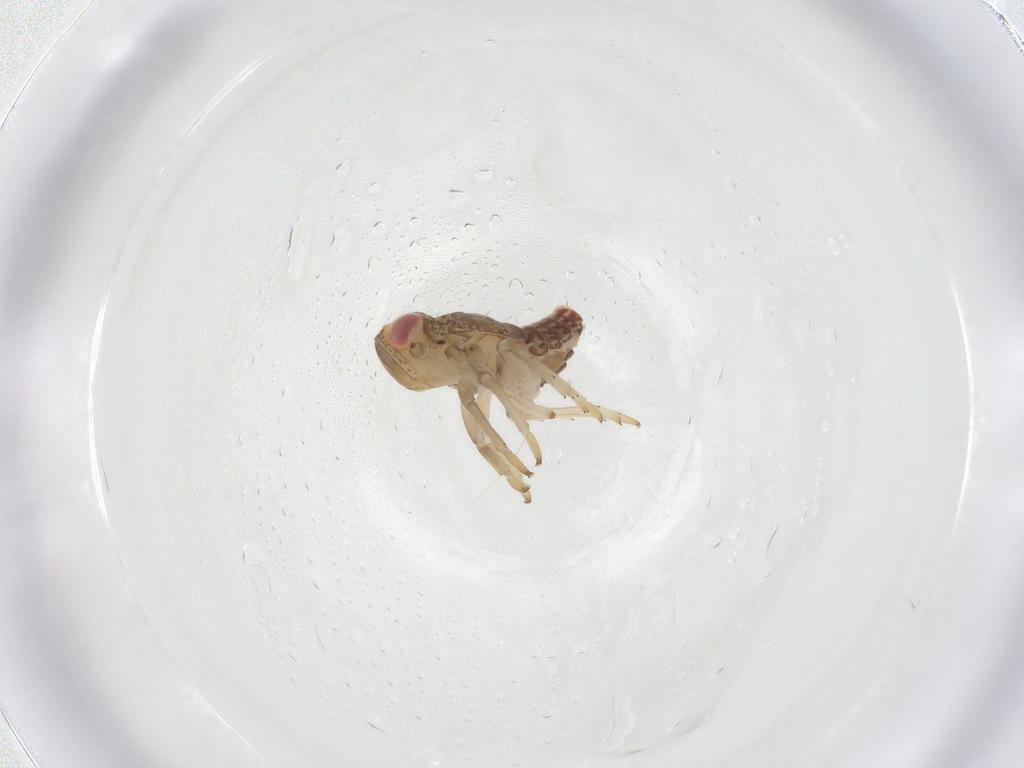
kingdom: Animalia
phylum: Arthropoda
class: Insecta
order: Hemiptera
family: Issidae
